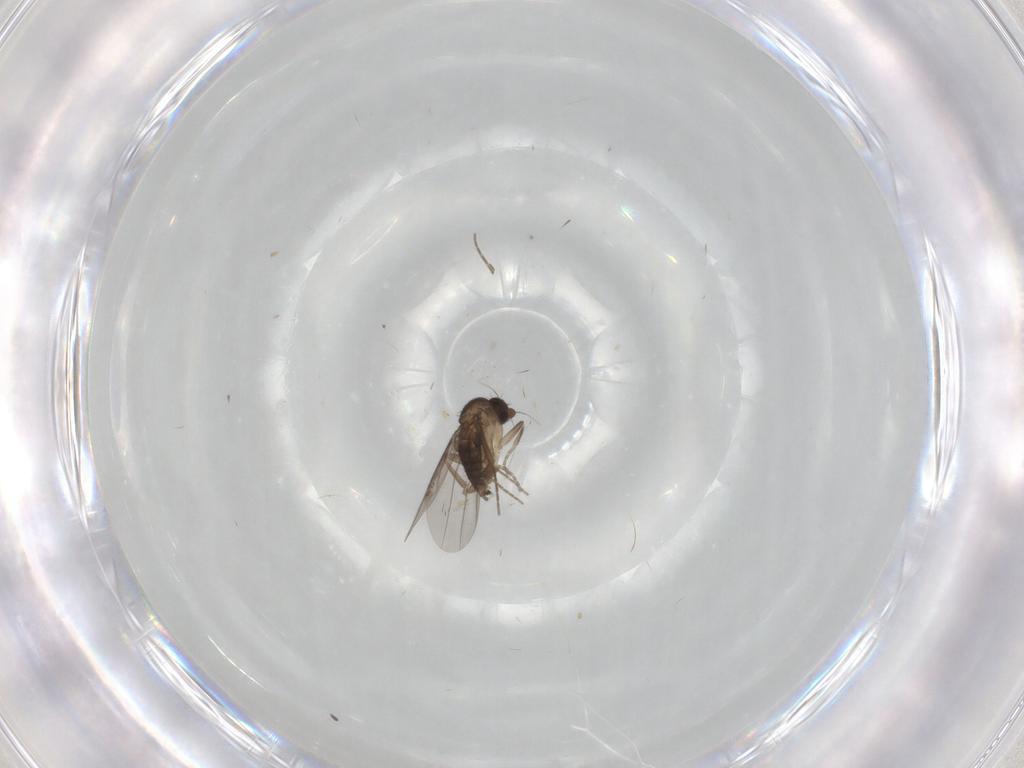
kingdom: Animalia
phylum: Arthropoda
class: Insecta
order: Diptera
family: Phoridae
